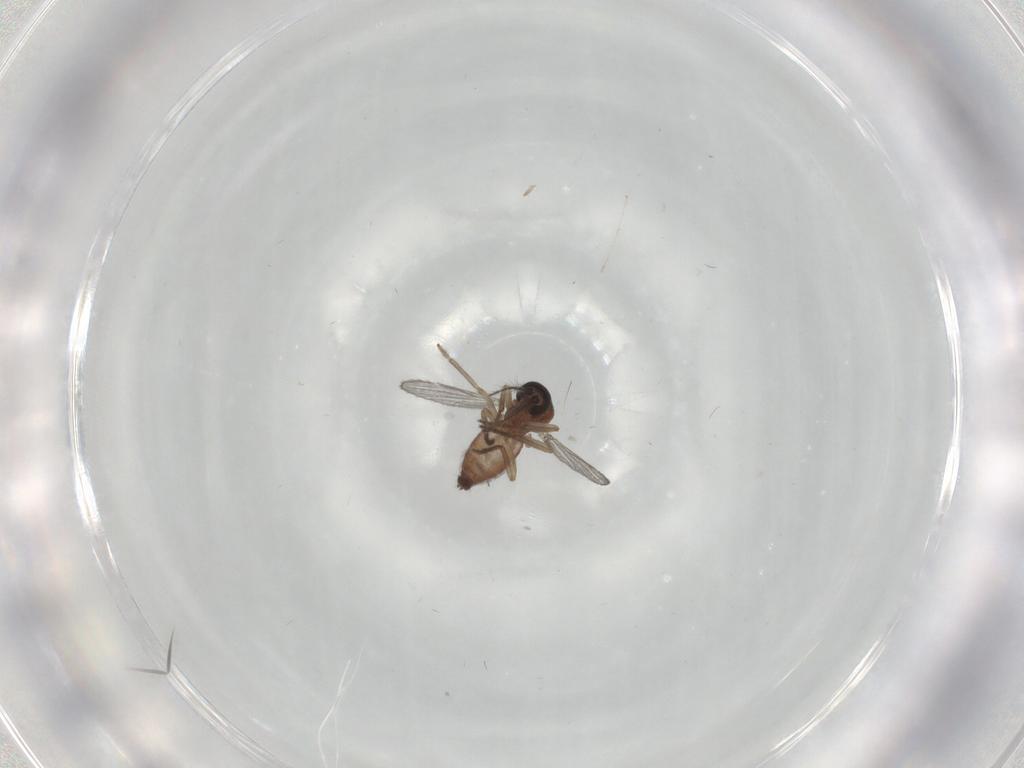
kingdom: Animalia
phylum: Arthropoda
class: Insecta
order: Diptera
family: Ceratopogonidae
